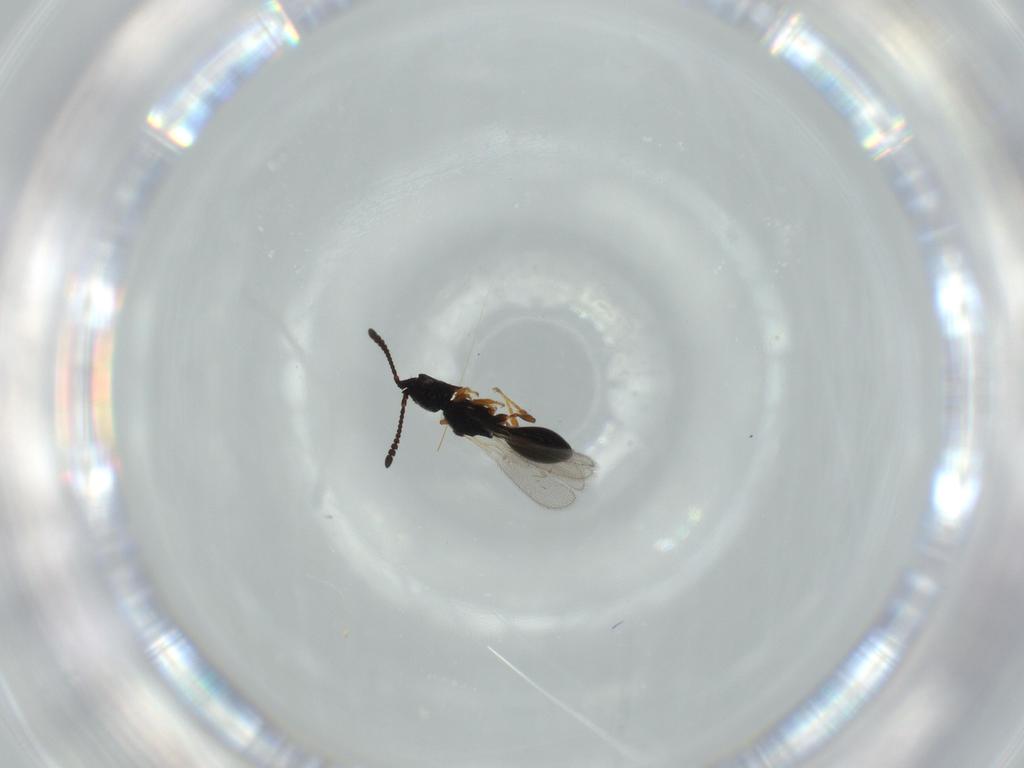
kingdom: Animalia
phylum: Arthropoda
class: Insecta
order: Hymenoptera
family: Diapriidae
